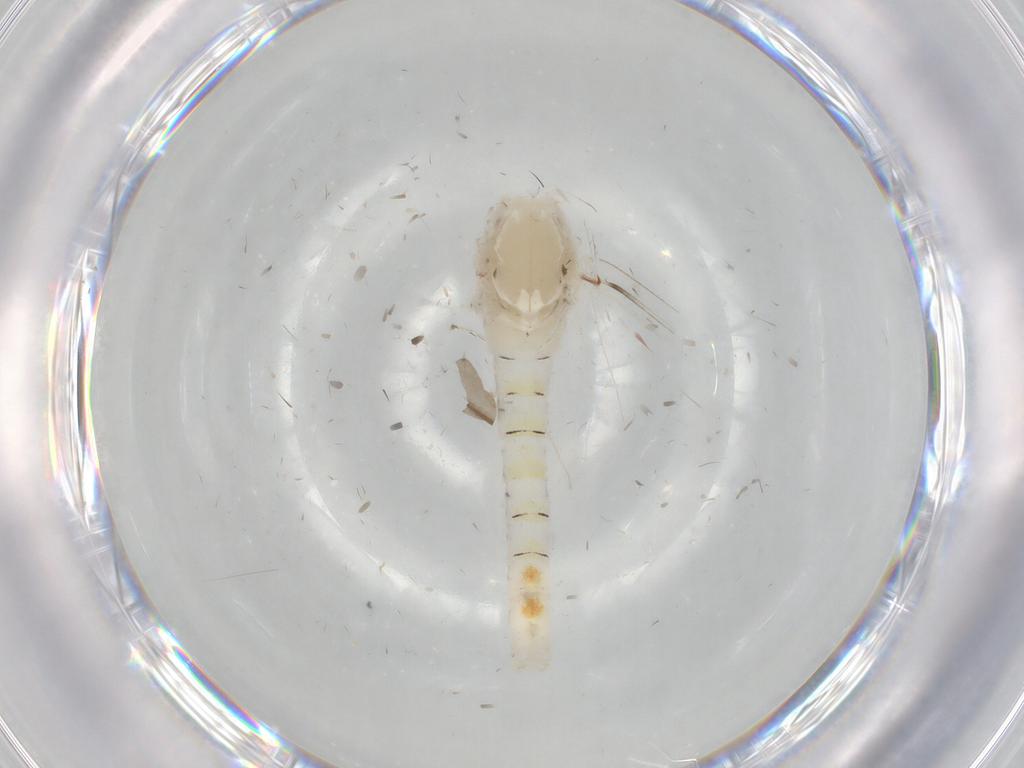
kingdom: Animalia
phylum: Arthropoda
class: Insecta
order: Ephemeroptera
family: Baetidae
